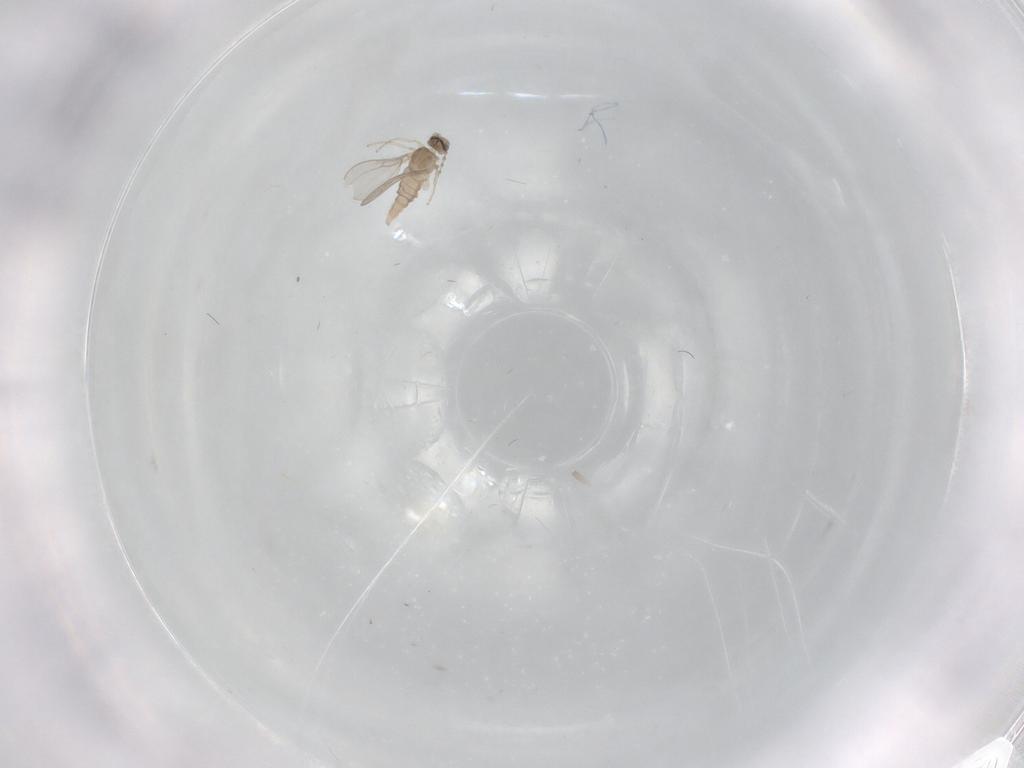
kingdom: Animalia
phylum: Arthropoda
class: Insecta
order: Diptera
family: Cecidomyiidae
